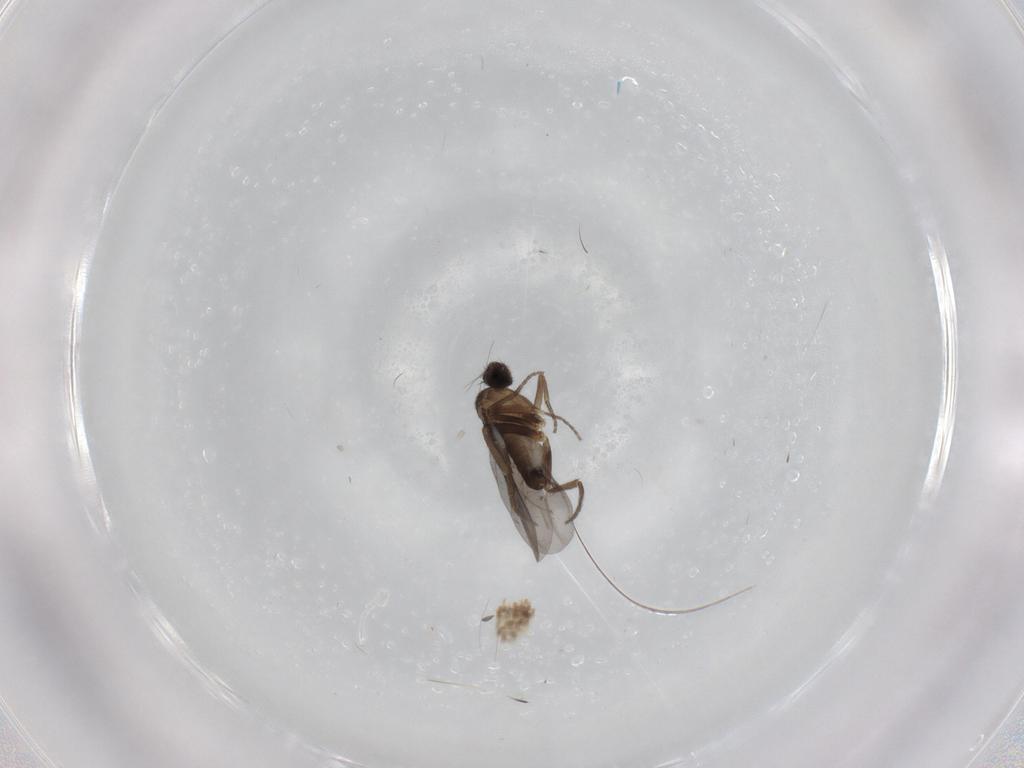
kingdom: Animalia
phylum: Arthropoda
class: Insecta
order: Diptera
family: Phoridae
